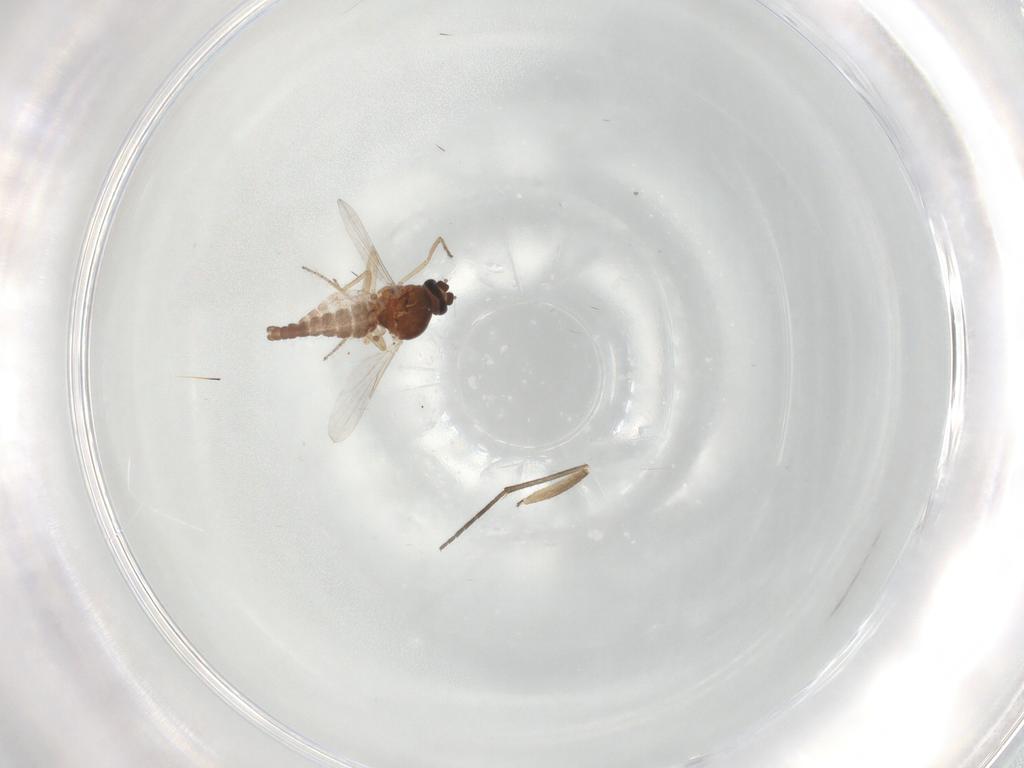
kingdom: Animalia
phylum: Arthropoda
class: Insecta
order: Diptera
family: Ceratopogonidae
